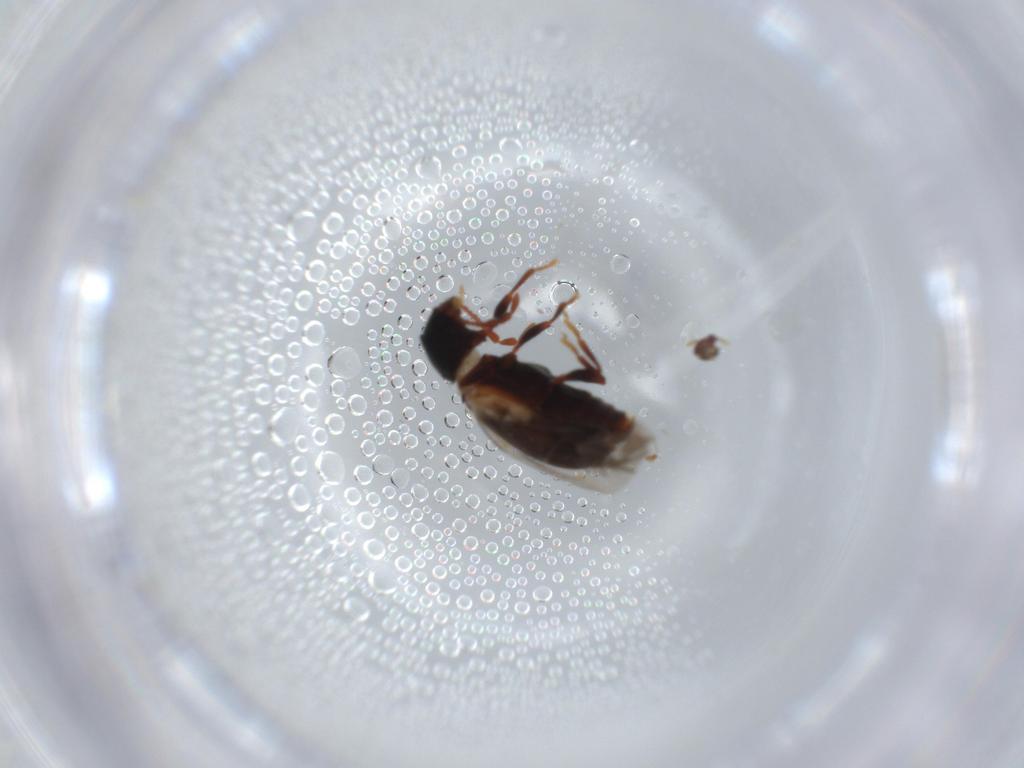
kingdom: Animalia
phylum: Arthropoda
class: Insecta
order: Coleoptera
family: Ptinidae
